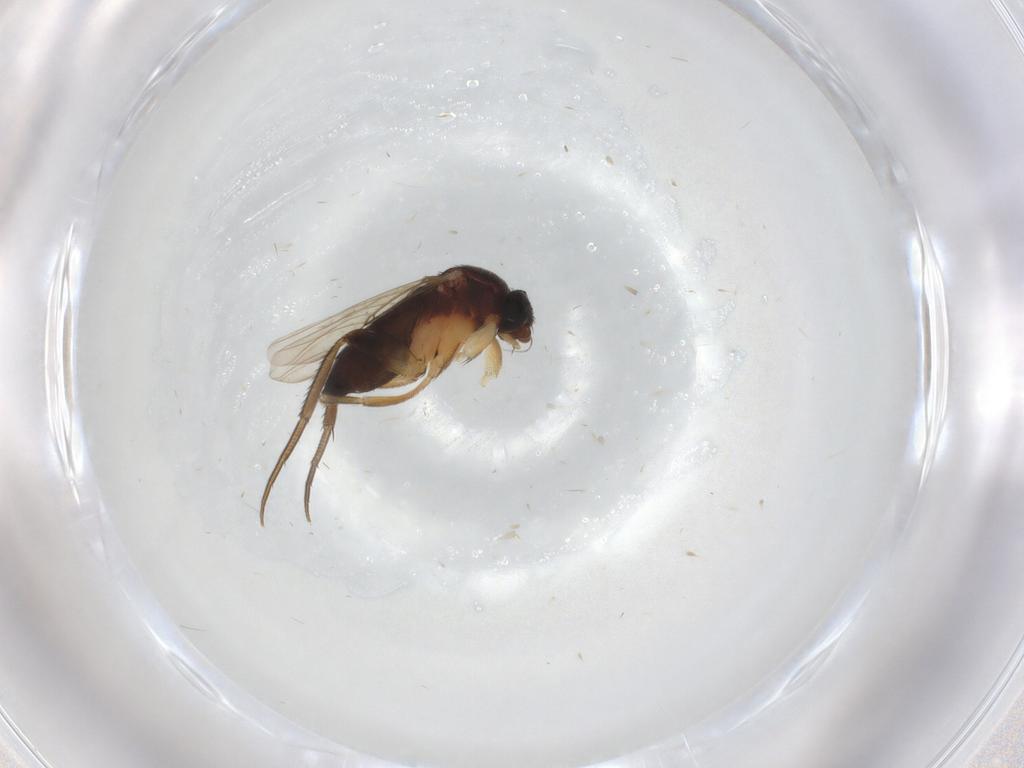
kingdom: Animalia
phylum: Arthropoda
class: Insecta
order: Diptera
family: Phoridae
